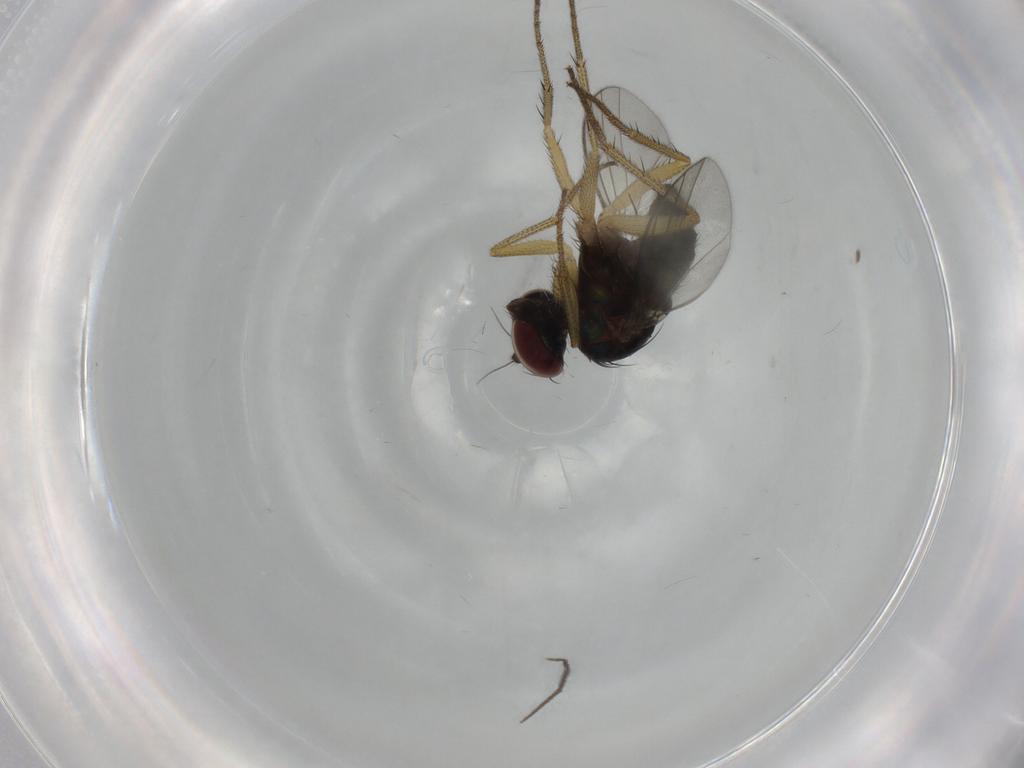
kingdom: Animalia
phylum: Arthropoda
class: Insecta
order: Diptera
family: Dolichopodidae
